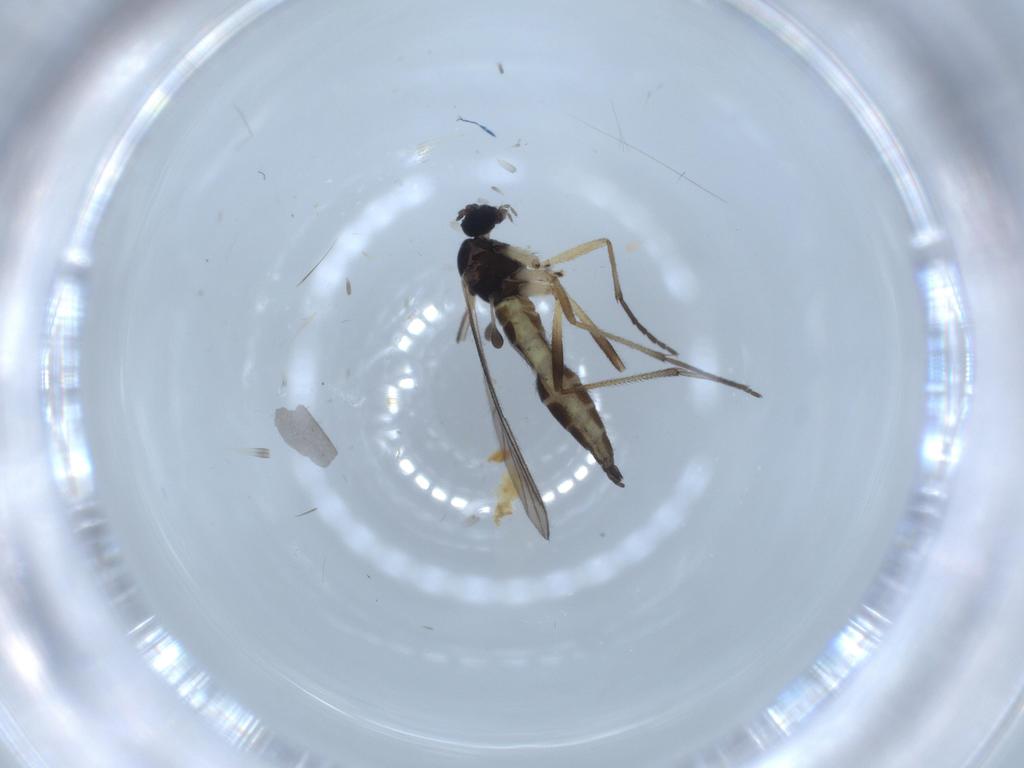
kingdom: Animalia
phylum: Arthropoda
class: Insecta
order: Diptera
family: Sciaridae
